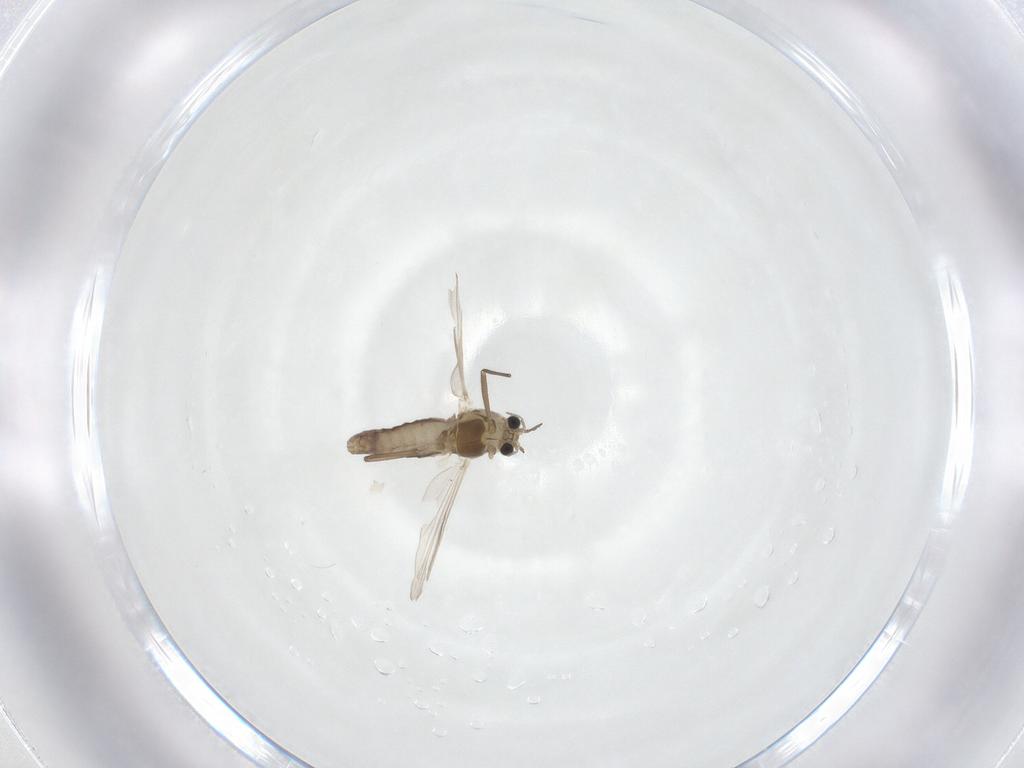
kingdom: Animalia
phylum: Arthropoda
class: Insecta
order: Diptera
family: Chironomidae
